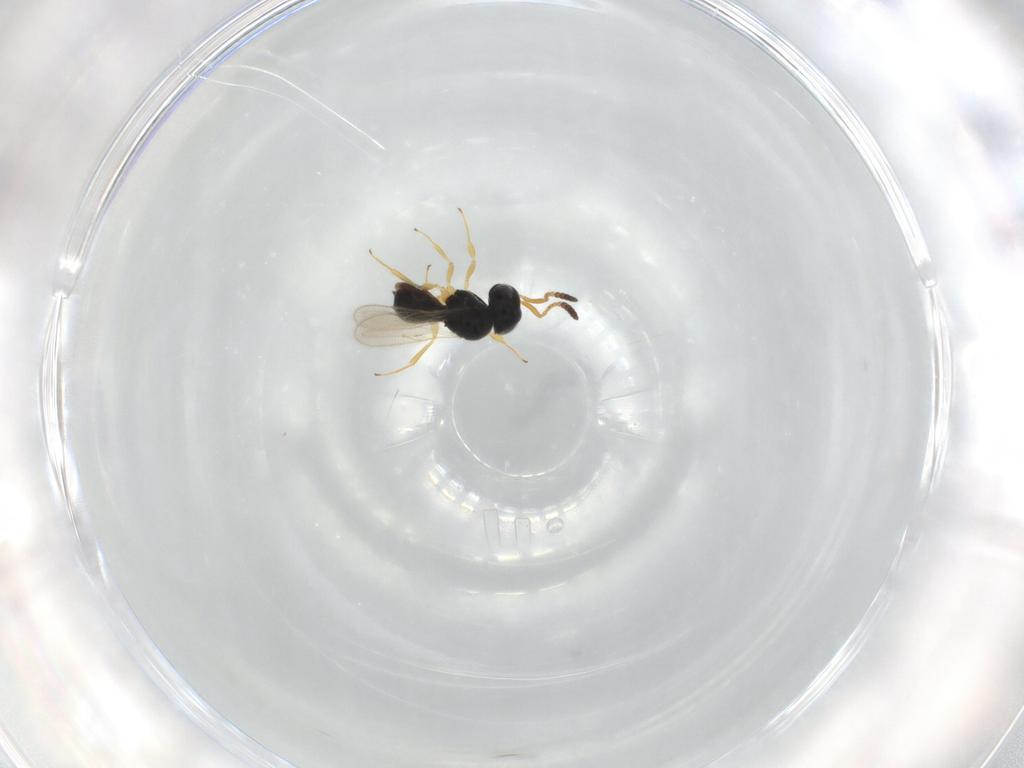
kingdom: Animalia
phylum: Arthropoda
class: Insecta
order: Hymenoptera
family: Scelionidae
